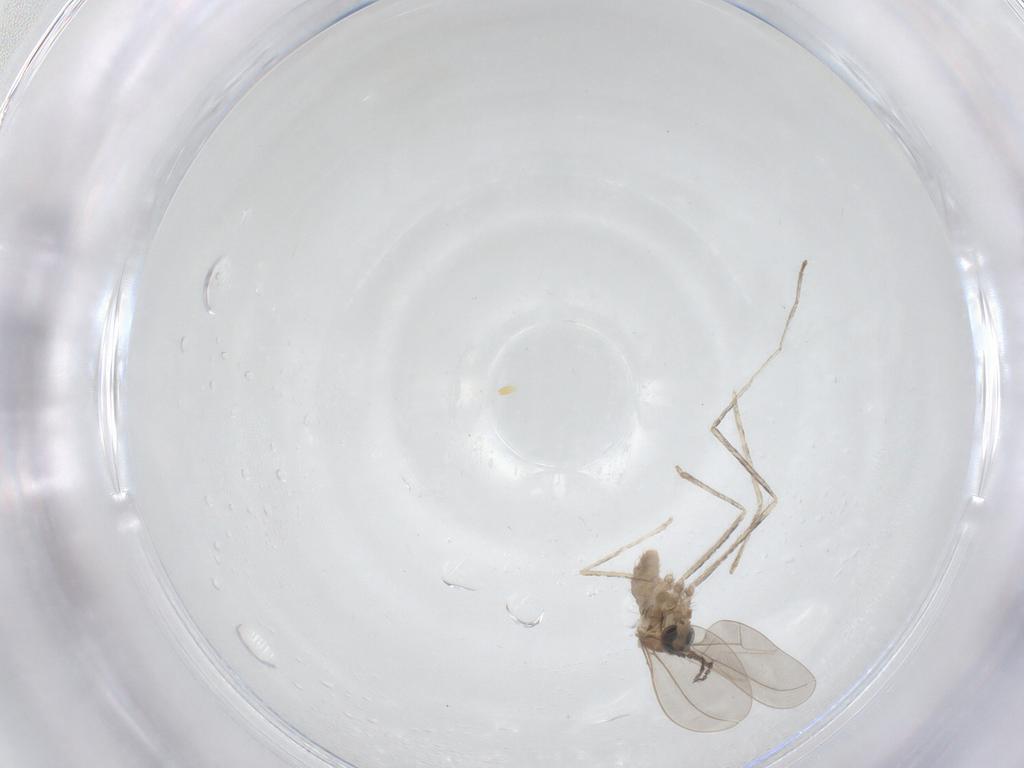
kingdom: Animalia
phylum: Arthropoda
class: Insecta
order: Diptera
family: Cecidomyiidae
